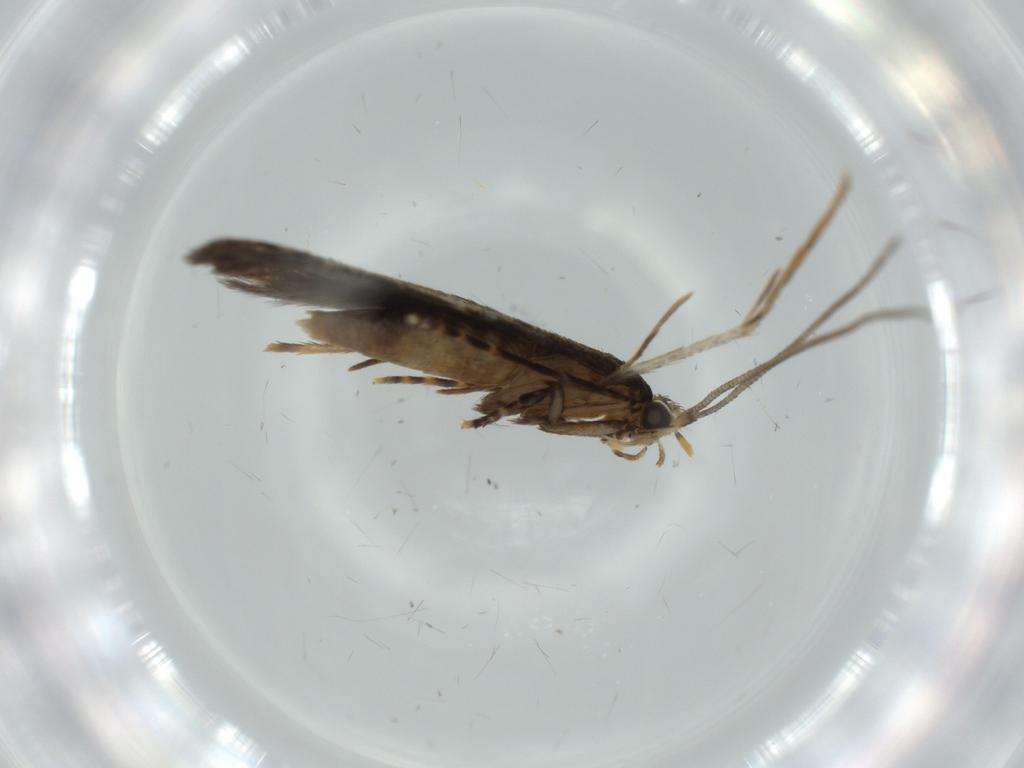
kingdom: Animalia
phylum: Arthropoda
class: Insecta
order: Lepidoptera
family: Tineidae
